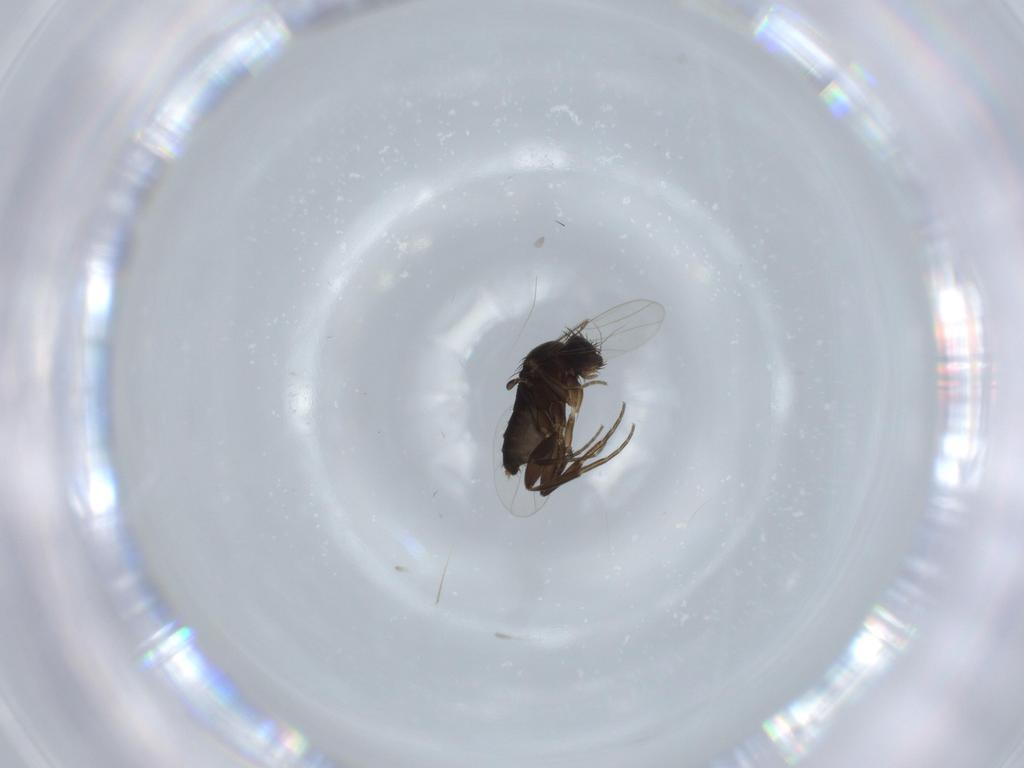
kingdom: Animalia
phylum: Arthropoda
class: Insecta
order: Diptera
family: Phoridae
